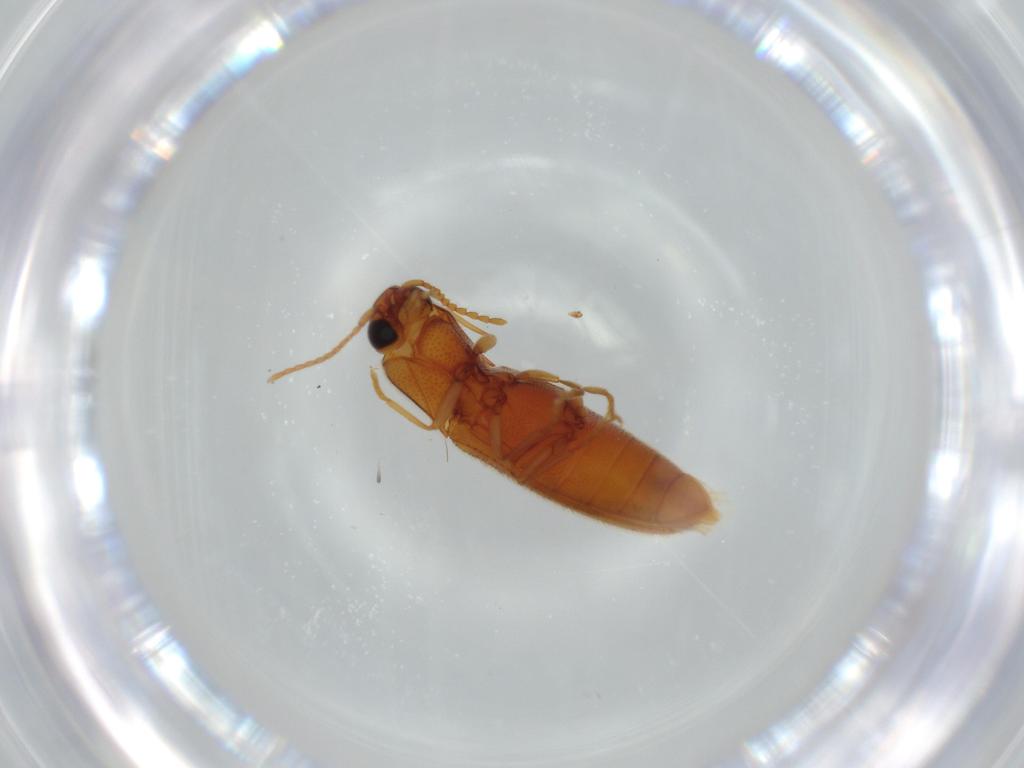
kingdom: Animalia
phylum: Arthropoda
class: Insecta
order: Coleoptera
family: Elateridae
